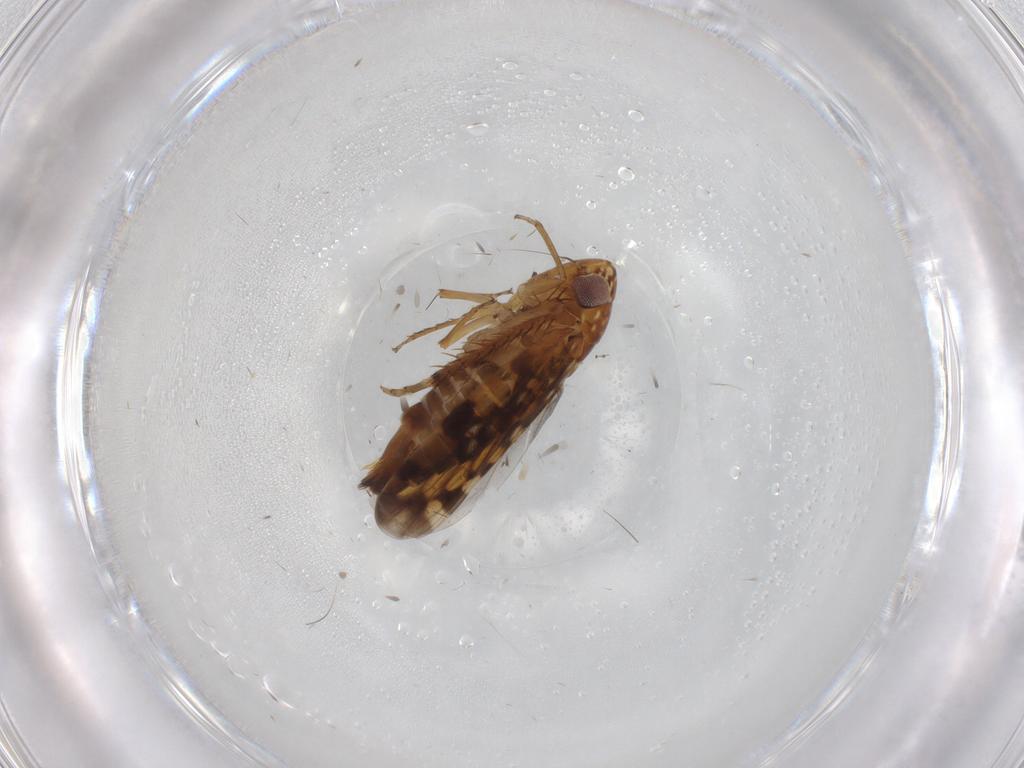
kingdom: Animalia
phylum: Arthropoda
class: Insecta
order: Hemiptera
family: Cicadellidae
